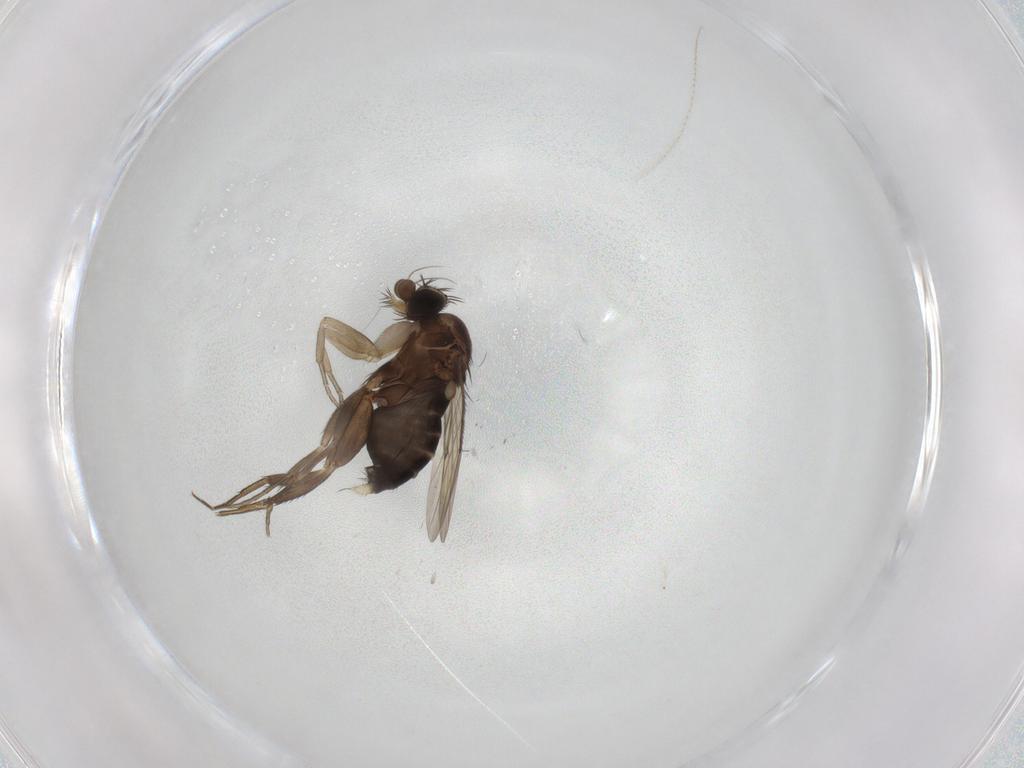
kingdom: Animalia
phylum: Arthropoda
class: Insecta
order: Diptera
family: Phoridae
